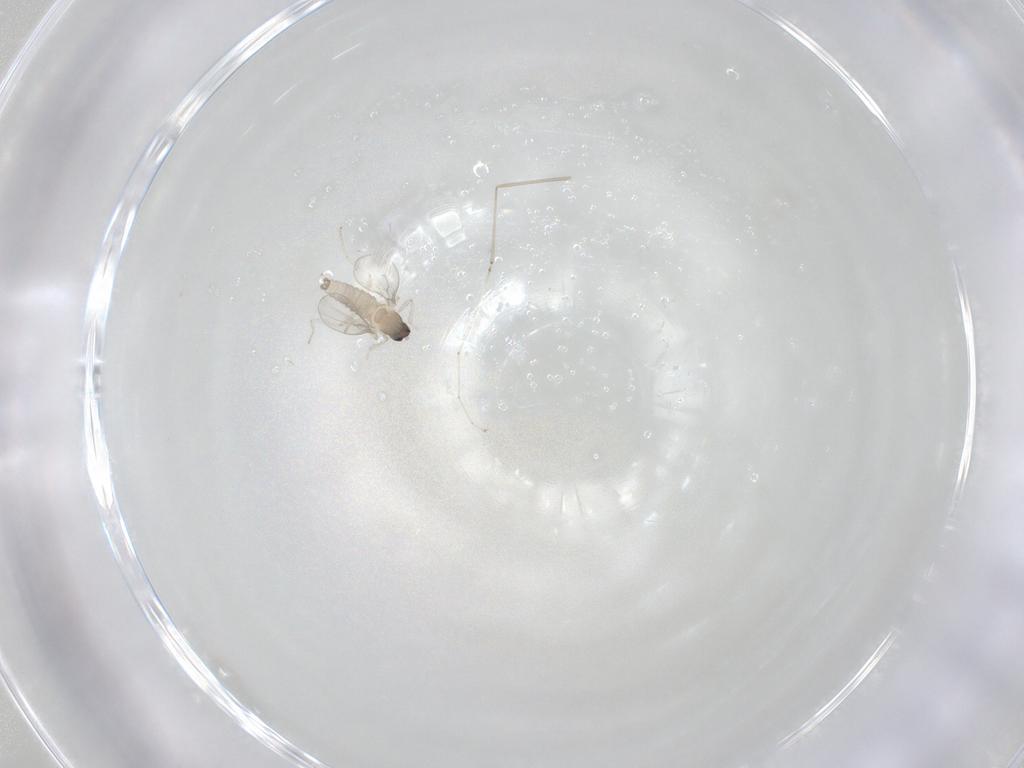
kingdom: Animalia
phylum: Arthropoda
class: Insecta
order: Diptera
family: Cecidomyiidae
